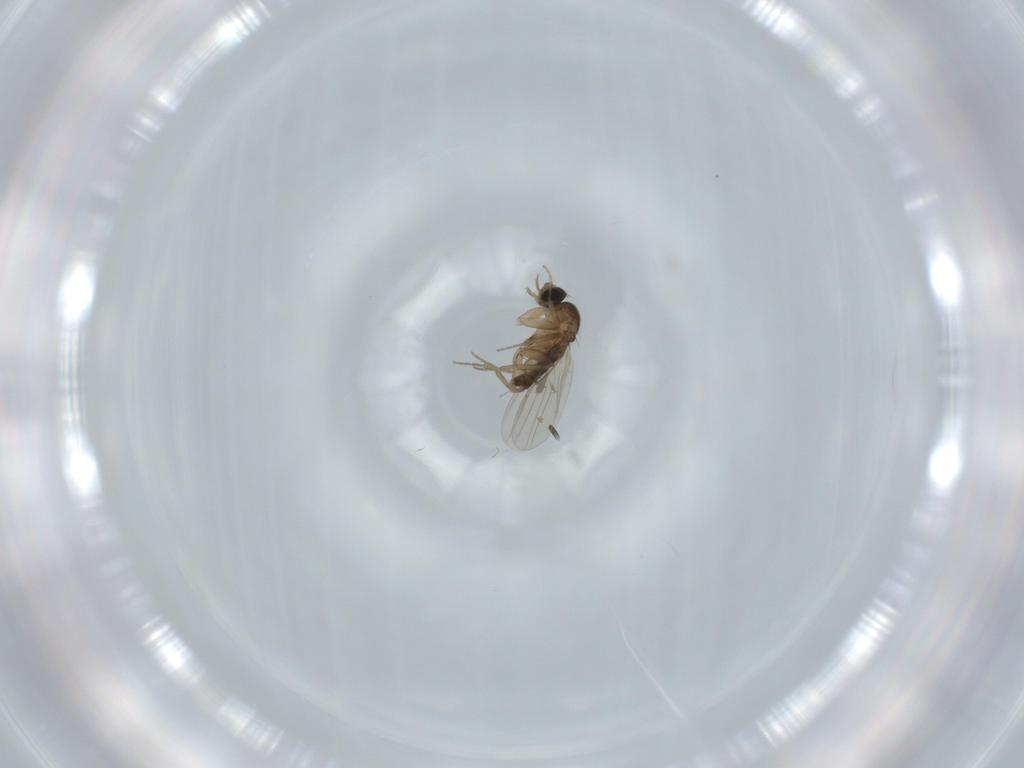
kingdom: Animalia
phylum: Arthropoda
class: Insecta
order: Diptera
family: Phoridae
